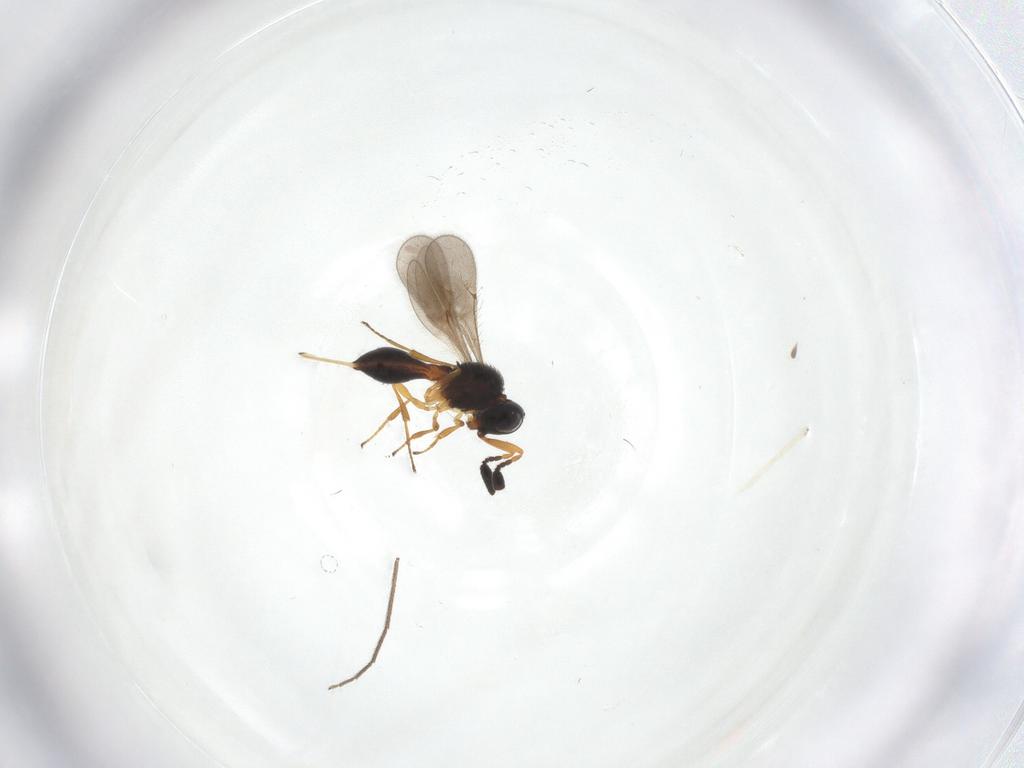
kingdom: Animalia
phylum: Arthropoda
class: Insecta
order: Hymenoptera
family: Scelionidae
